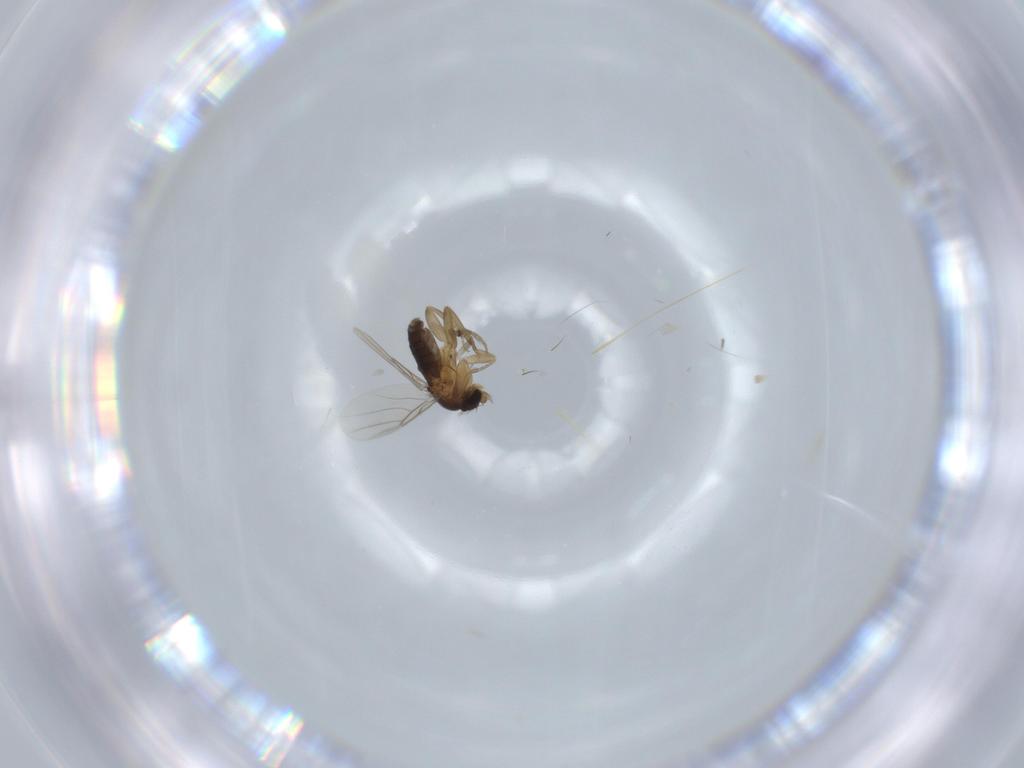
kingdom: Animalia
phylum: Arthropoda
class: Insecta
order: Diptera
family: Phoridae
